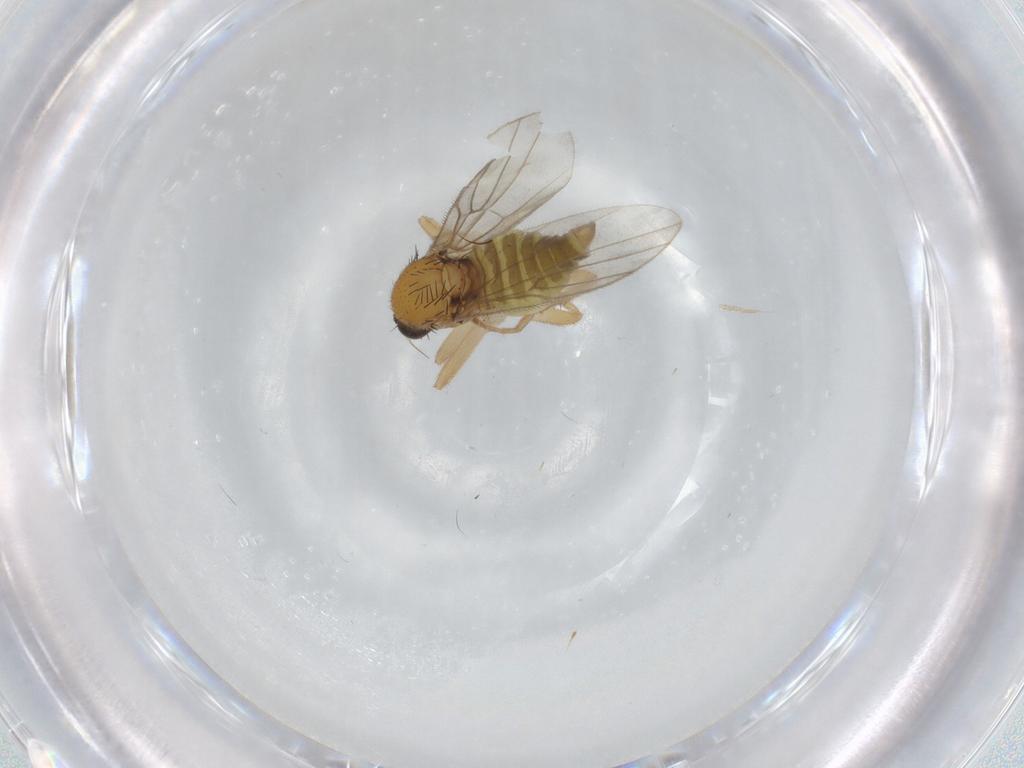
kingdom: Animalia
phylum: Arthropoda
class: Insecta
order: Diptera
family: Hybotidae
